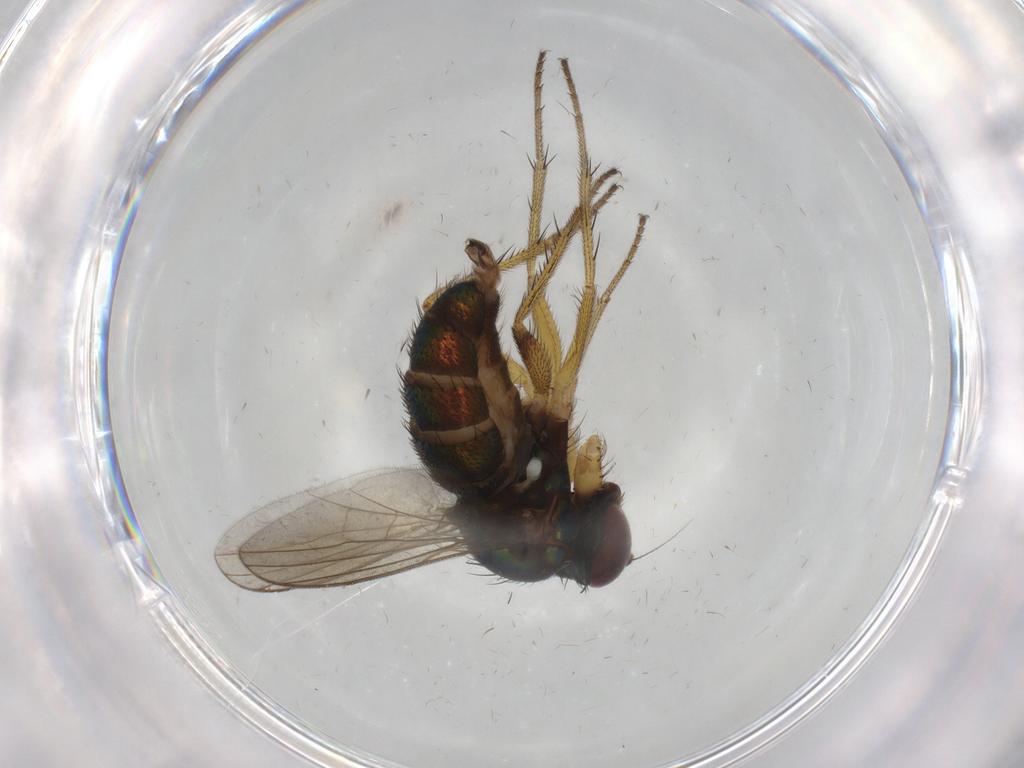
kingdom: Animalia
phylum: Arthropoda
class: Insecta
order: Diptera
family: Dolichopodidae
